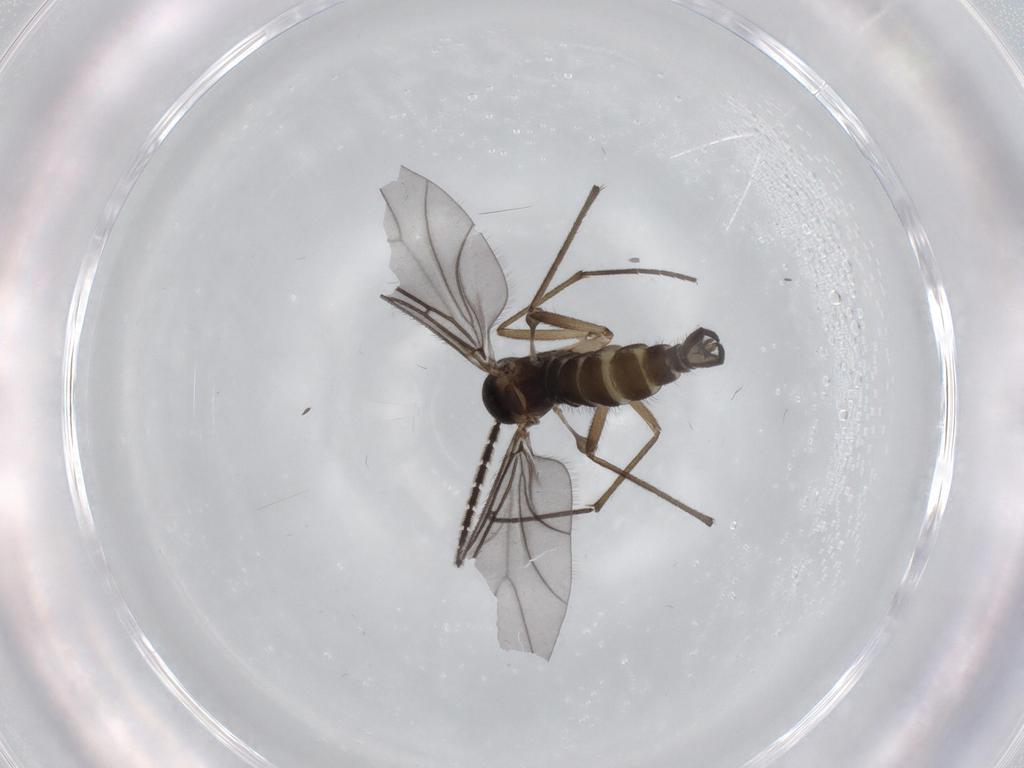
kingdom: Animalia
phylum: Arthropoda
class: Insecta
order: Diptera
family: Sciaridae
